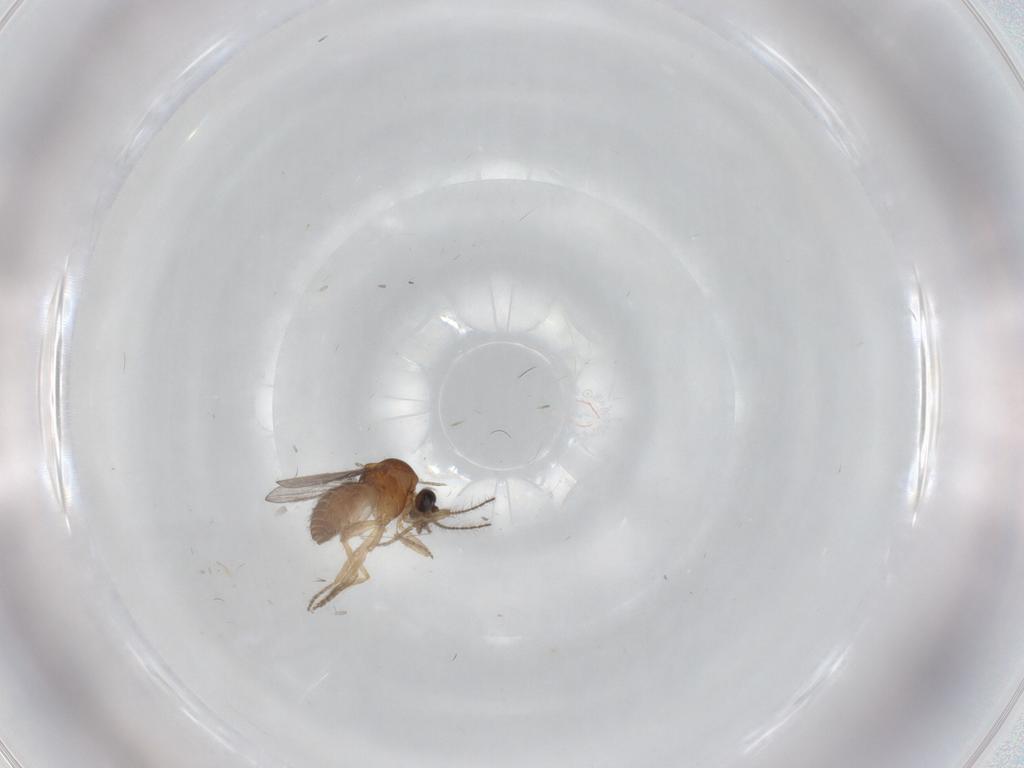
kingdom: Animalia
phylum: Arthropoda
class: Insecta
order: Diptera
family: Ceratopogonidae
